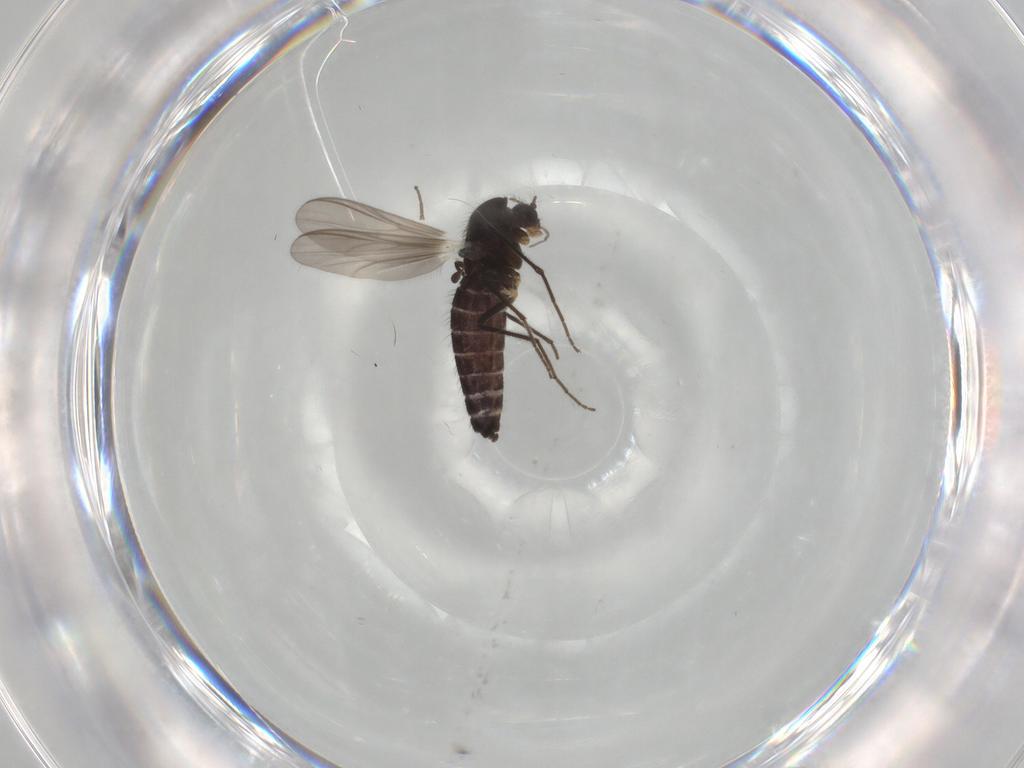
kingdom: Animalia
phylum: Arthropoda
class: Insecta
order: Diptera
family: Chironomidae
